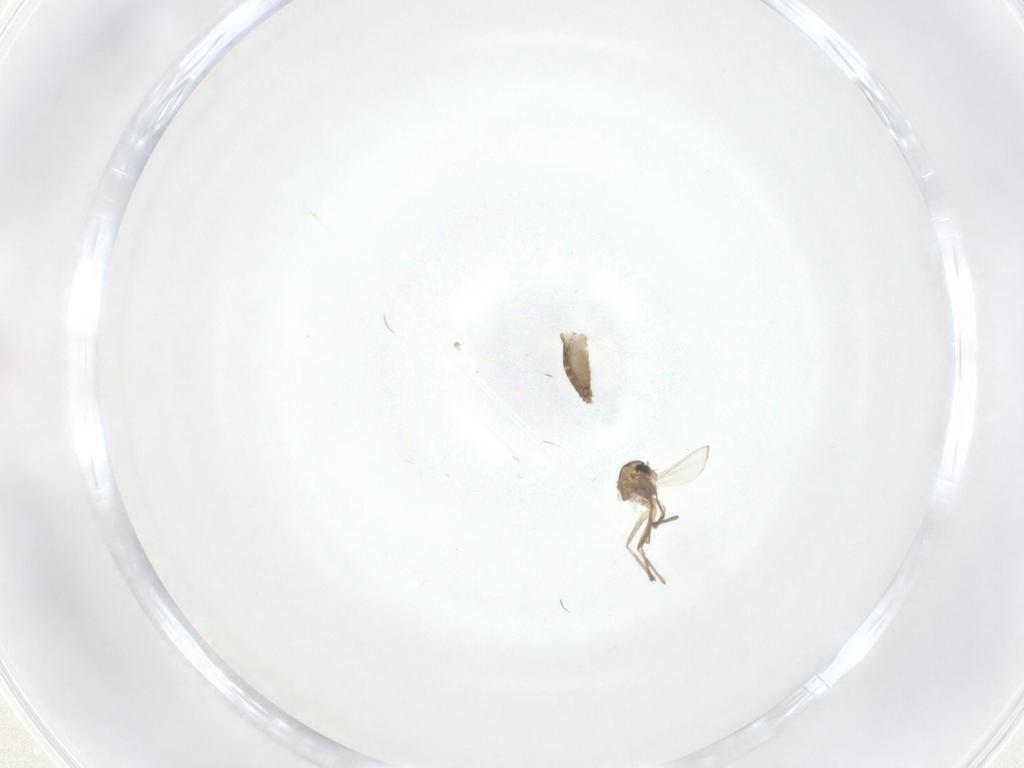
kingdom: Animalia
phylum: Arthropoda
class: Insecta
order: Diptera
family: Chironomidae
